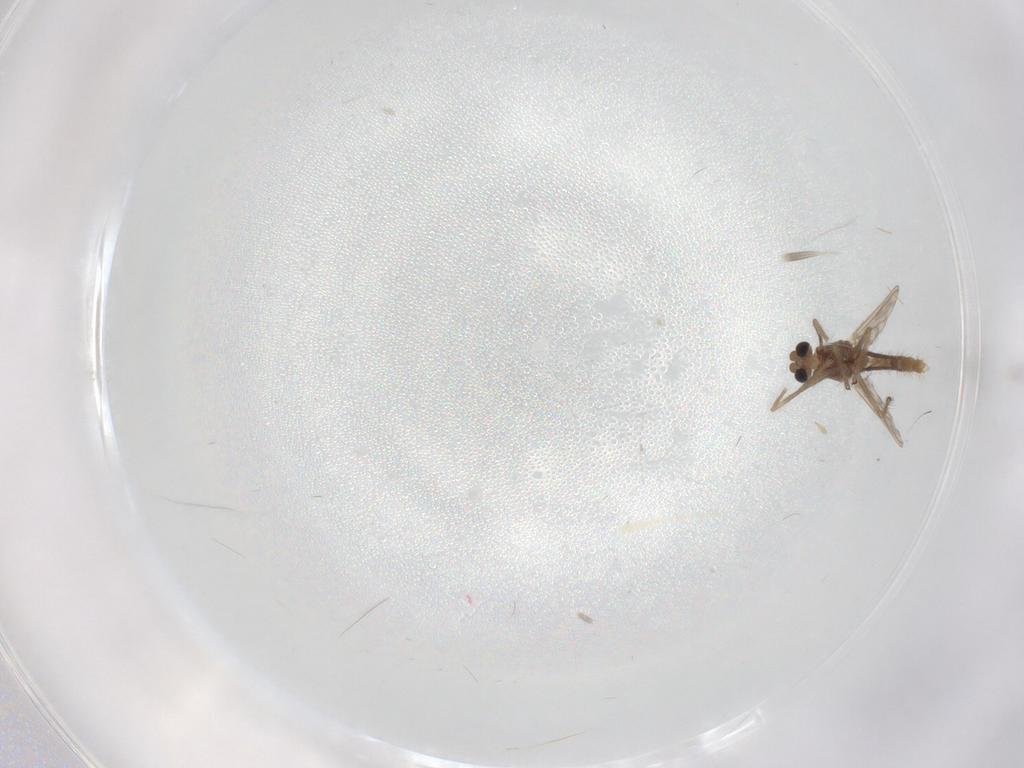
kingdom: Animalia
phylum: Arthropoda
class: Insecta
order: Diptera
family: Chironomidae
